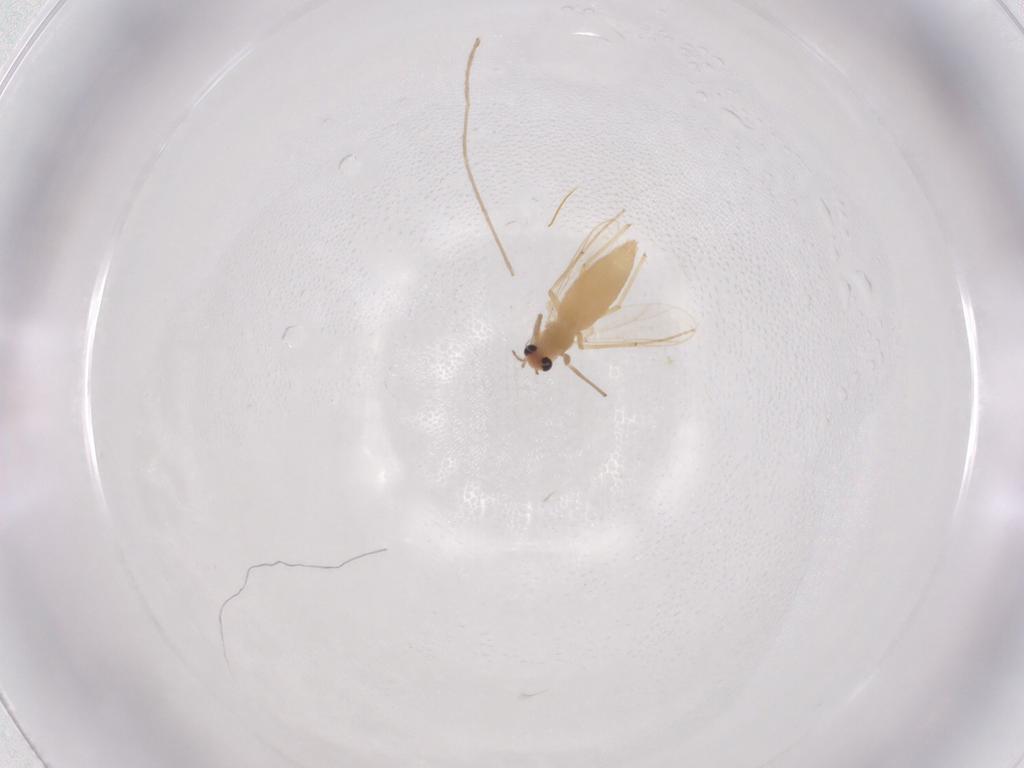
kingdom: Animalia
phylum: Arthropoda
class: Insecta
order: Diptera
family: Chironomidae
